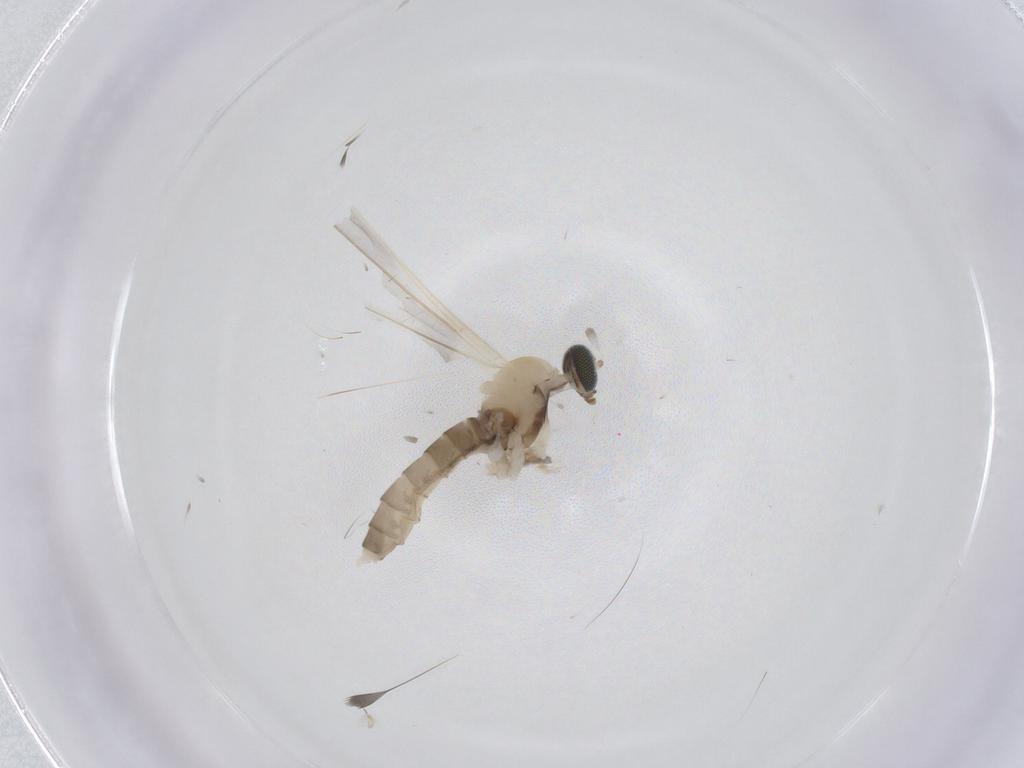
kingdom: Animalia
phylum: Arthropoda
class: Insecta
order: Diptera
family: Cecidomyiidae
